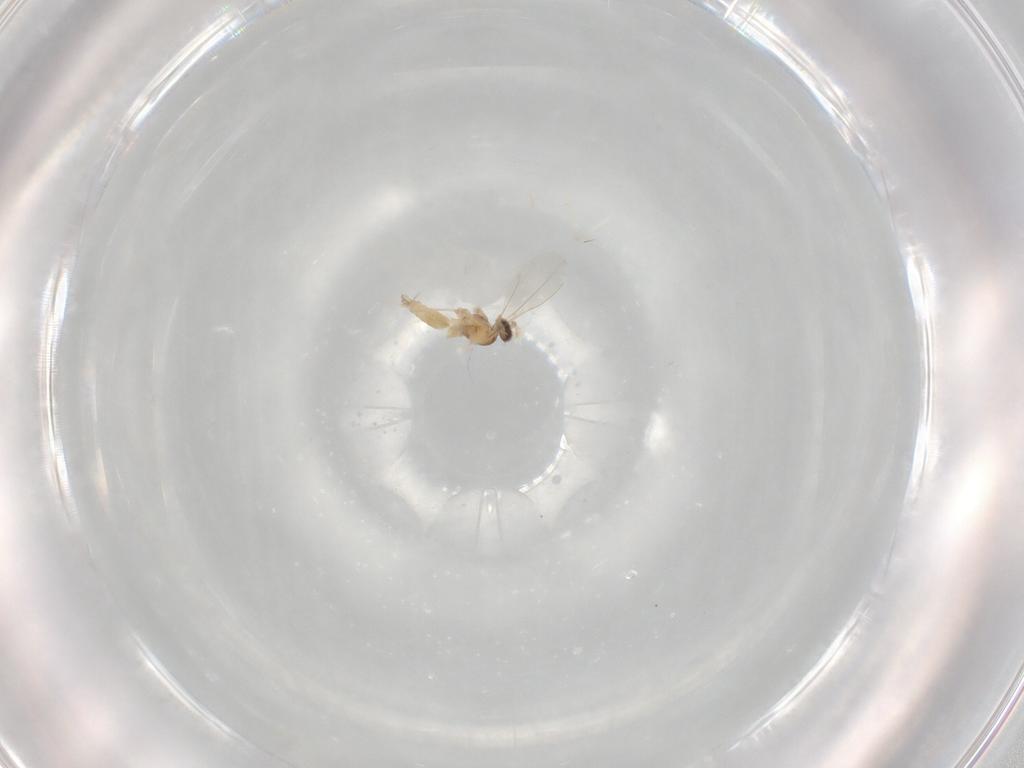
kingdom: Animalia
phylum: Arthropoda
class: Insecta
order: Diptera
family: Cecidomyiidae
